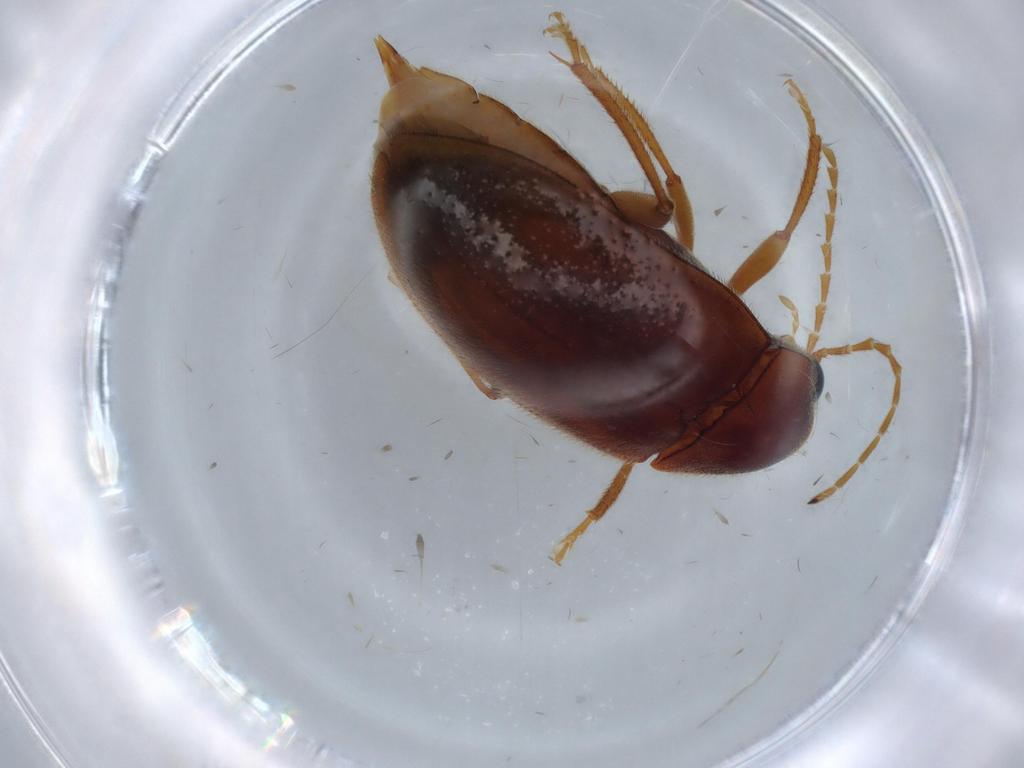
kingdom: Animalia
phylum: Arthropoda
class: Insecta
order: Coleoptera
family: Ptilodactylidae
